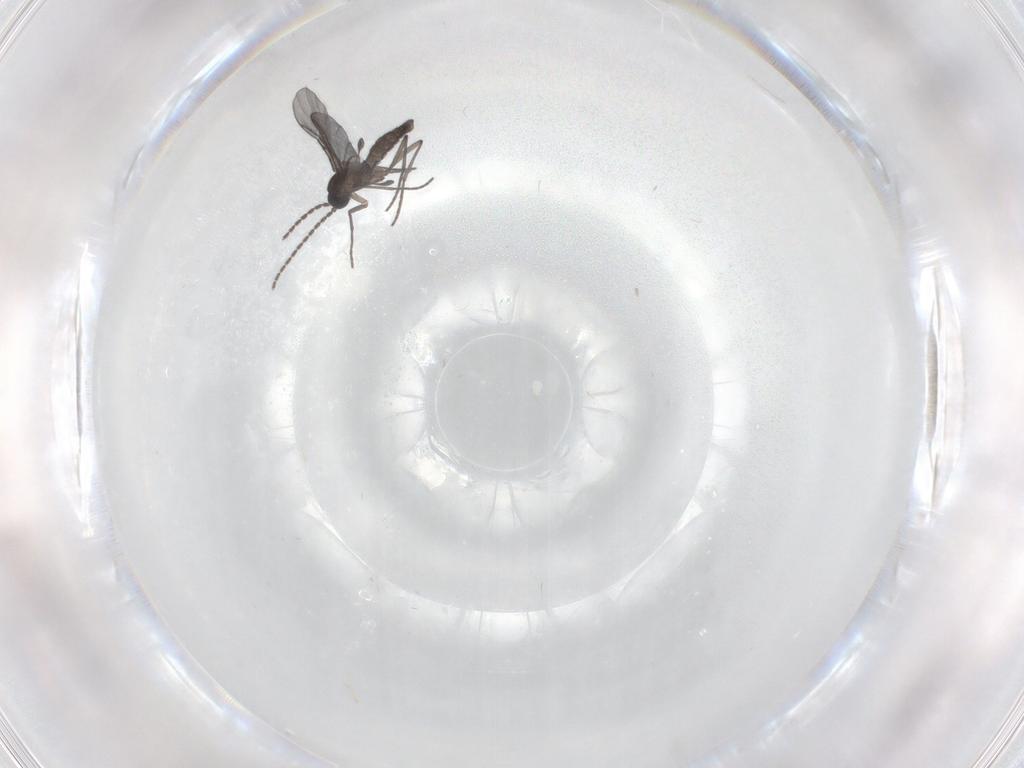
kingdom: Animalia
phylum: Arthropoda
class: Insecta
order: Diptera
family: Sciaridae
